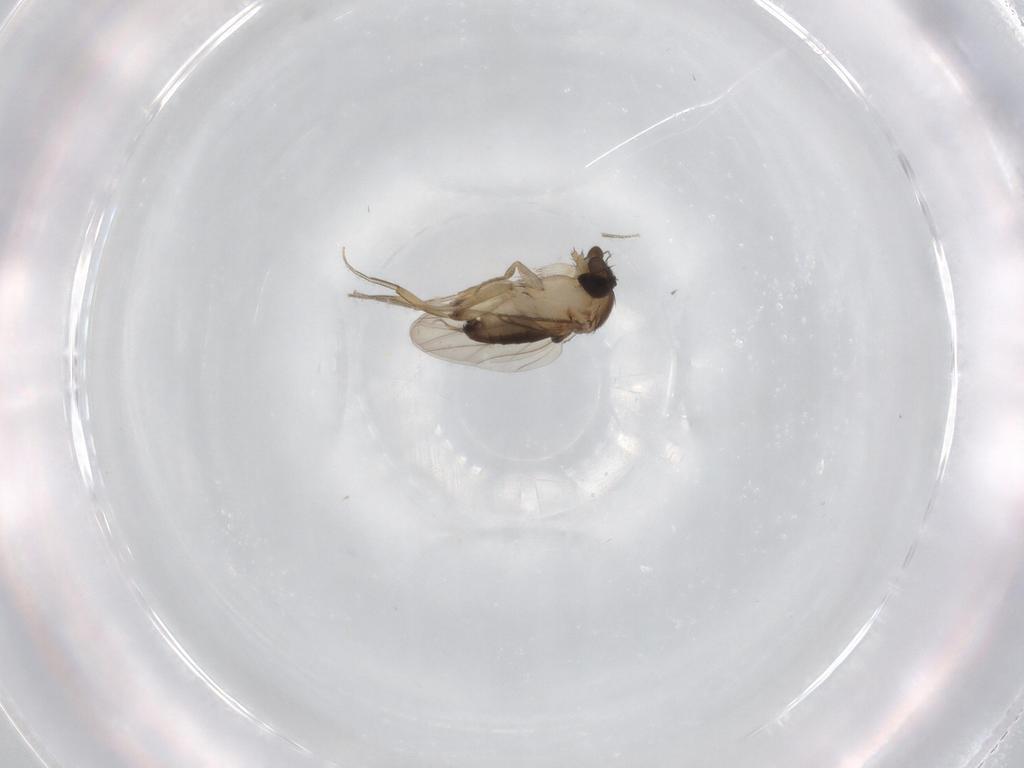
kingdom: Animalia
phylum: Arthropoda
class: Insecta
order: Diptera
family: Phoridae
